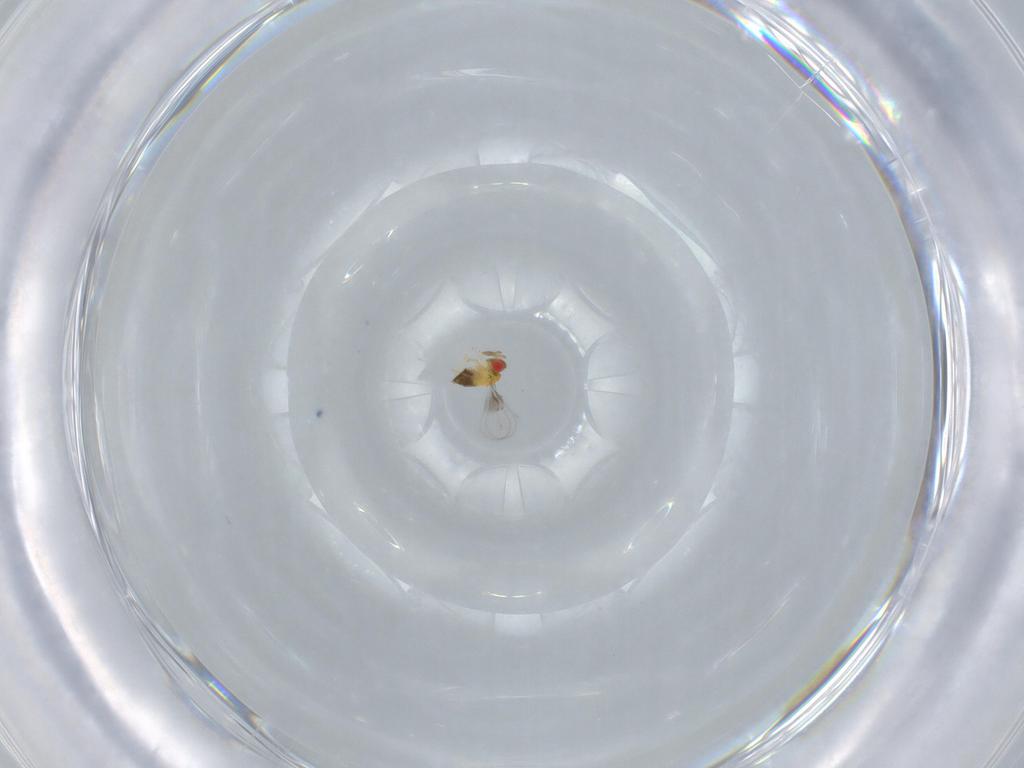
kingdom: Animalia
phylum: Arthropoda
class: Insecta
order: Hymenoptera
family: Trichogrammatidae
